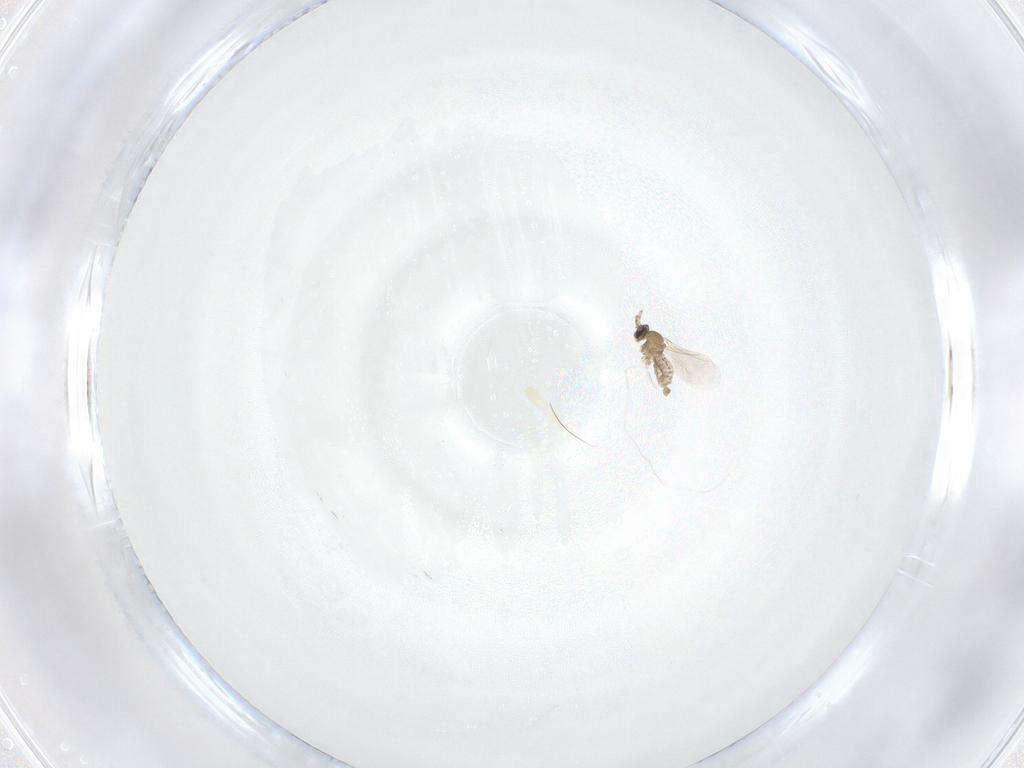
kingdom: Animalia
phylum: Arthropoda
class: Insecta
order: Diptera
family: Cecidomyiidae
